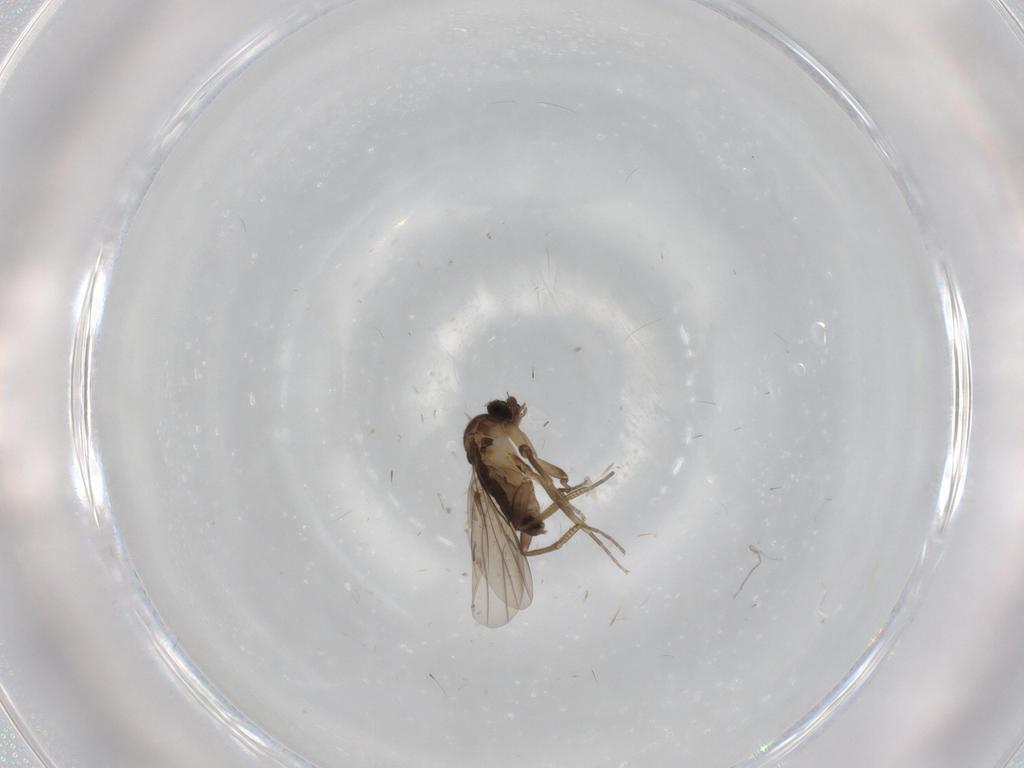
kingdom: Animalia
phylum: Arthropoda
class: Insecta
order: Diptera
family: Phoridae
